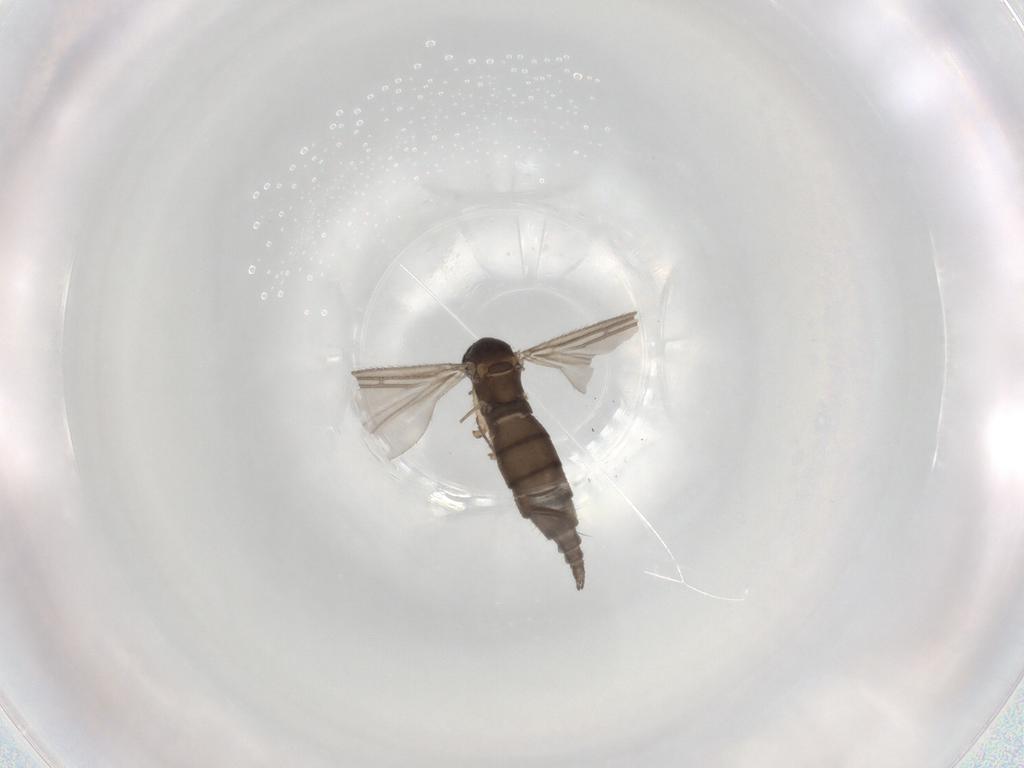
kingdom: Animalia
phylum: Arthropoda
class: Insecta
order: Diptera
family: Sciaridae
